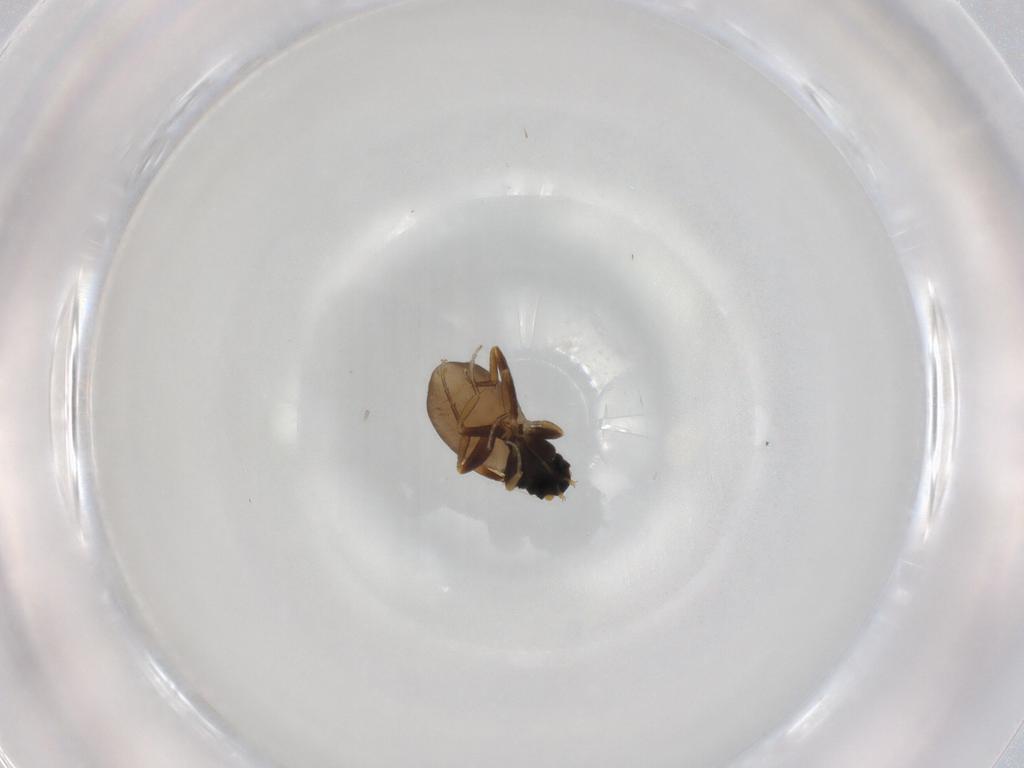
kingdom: Animalia
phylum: Arthropoda
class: Insecta
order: Diptera
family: Phoridae
